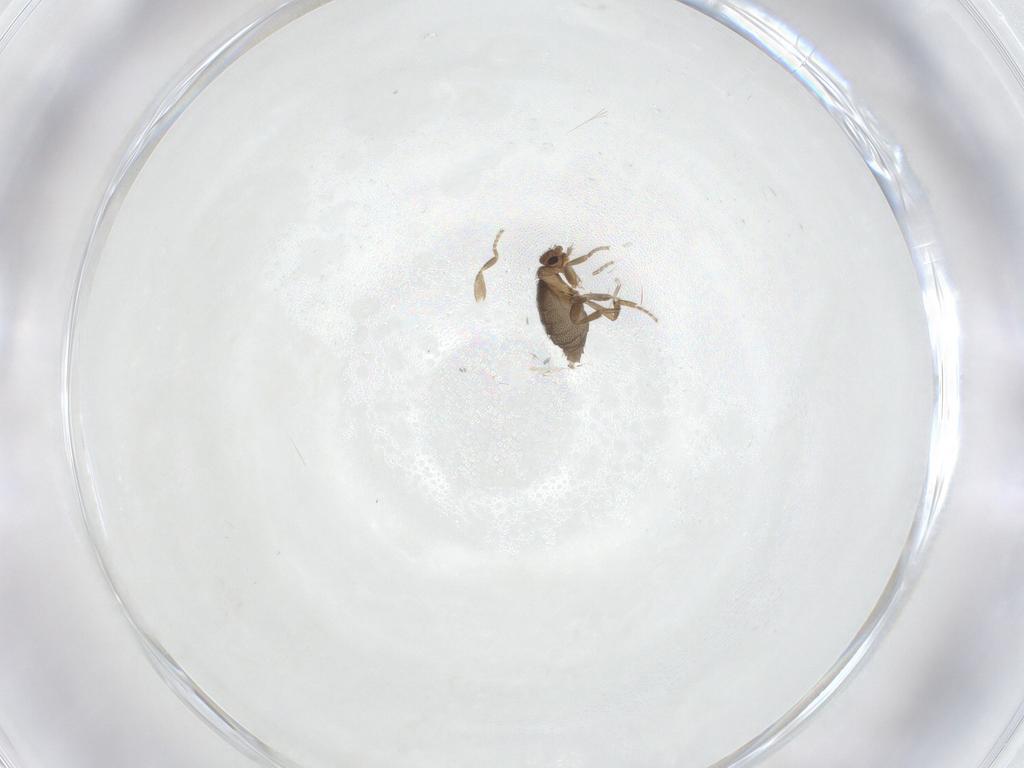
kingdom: Animalia
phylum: Arthropoda
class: Insecta
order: Diptera
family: Phoridae
